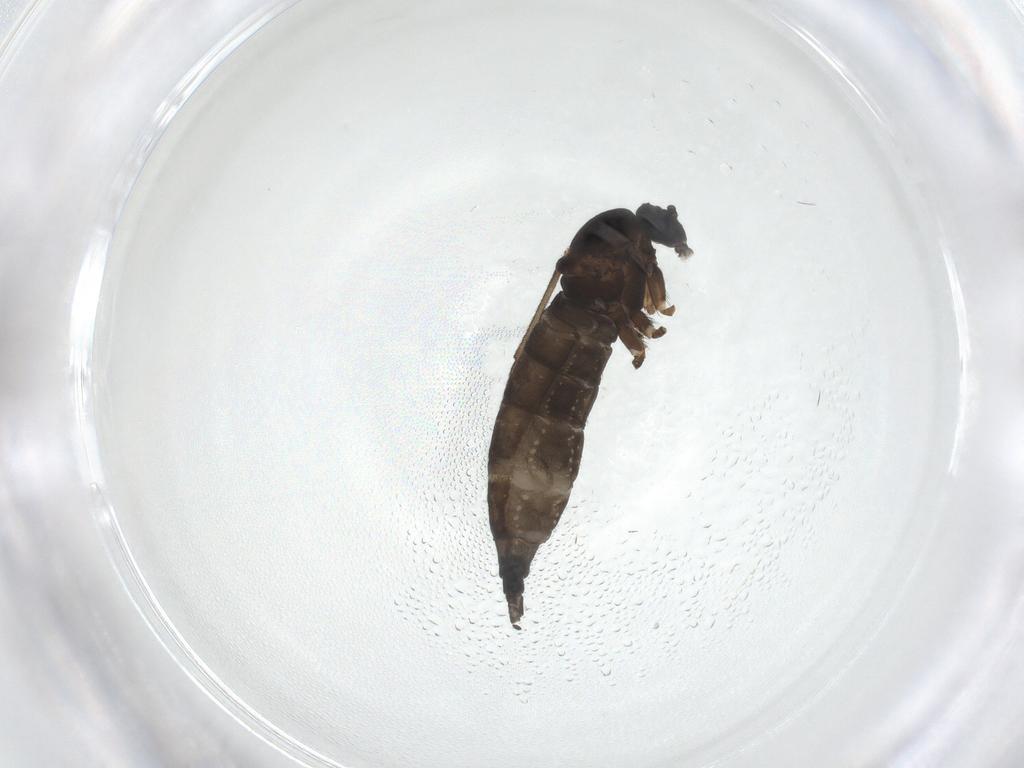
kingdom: Animalia
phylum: Arthropoda
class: Insecta
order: Diptera
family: Sciaridae
